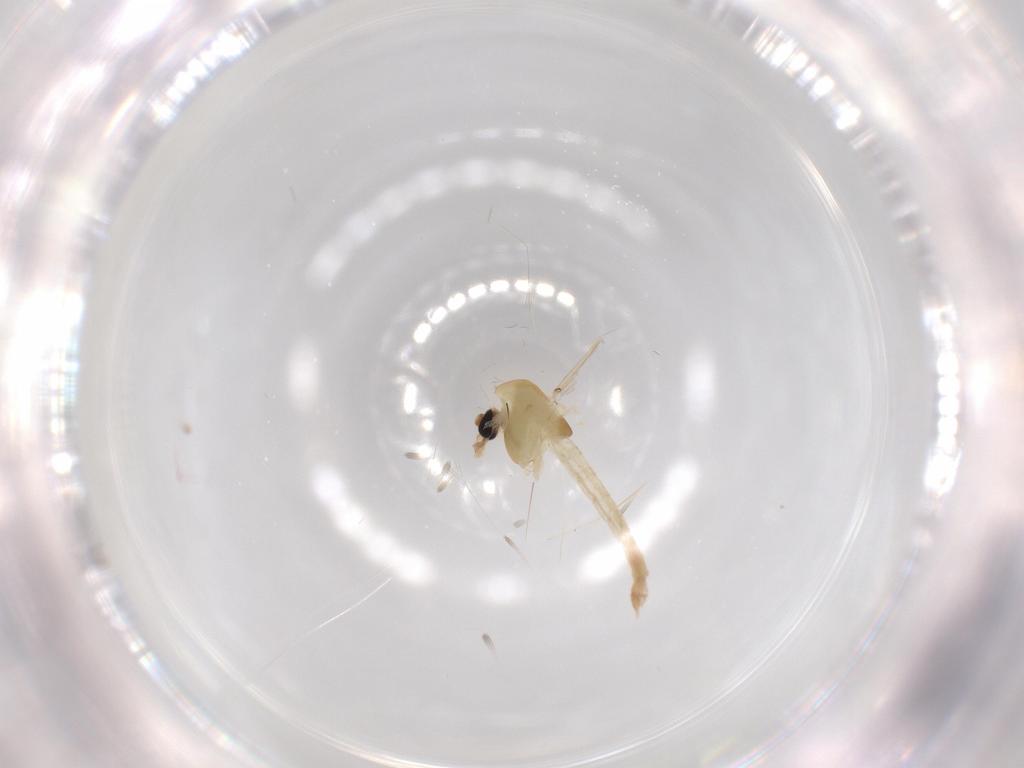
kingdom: Animalia
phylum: Arthropoda
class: Insecta
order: Diptera
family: Chironomidae
